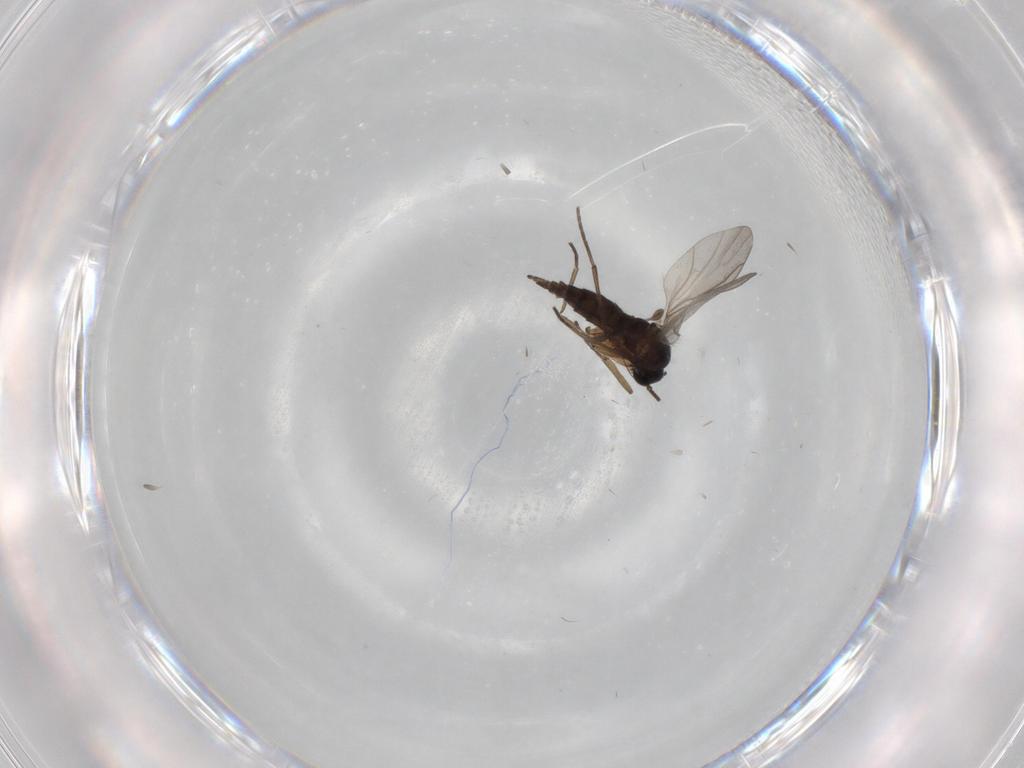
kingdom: Animalia
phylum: Arthropoda
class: Insecta
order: Diptera
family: Sciaridae
